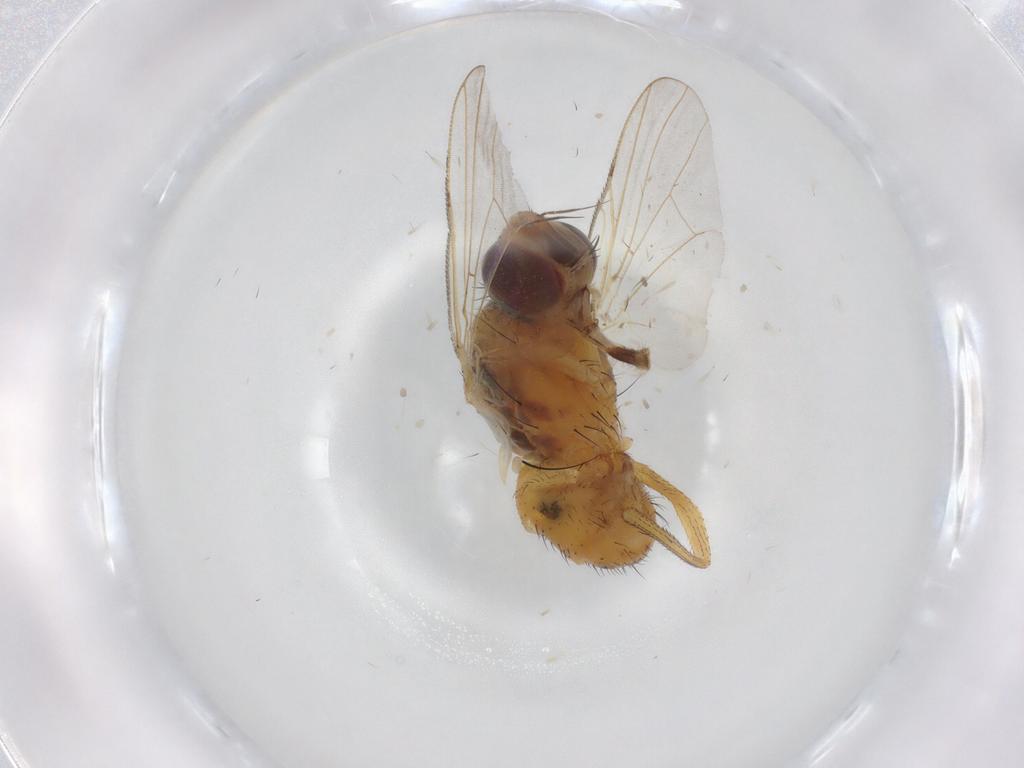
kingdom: Animalia
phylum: Arthropoda
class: Insecta
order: Diptera
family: Muscidae
